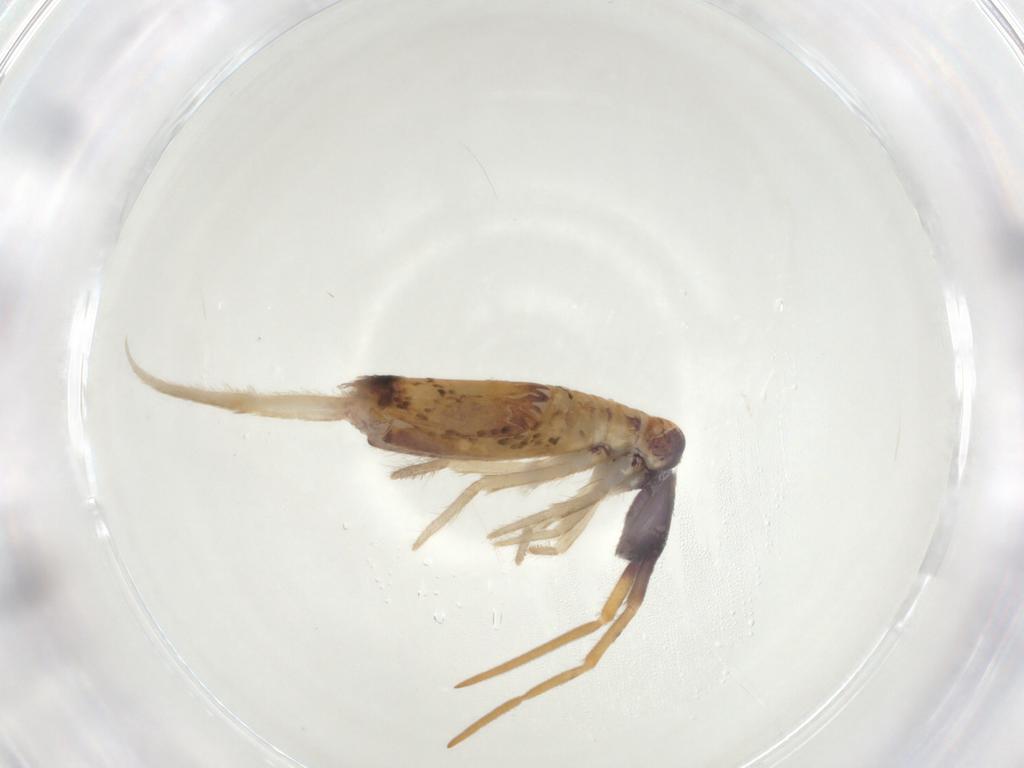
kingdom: Animalia
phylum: Arthropoda
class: Collembola
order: Entomobryomorpha
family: Entomobryidae
